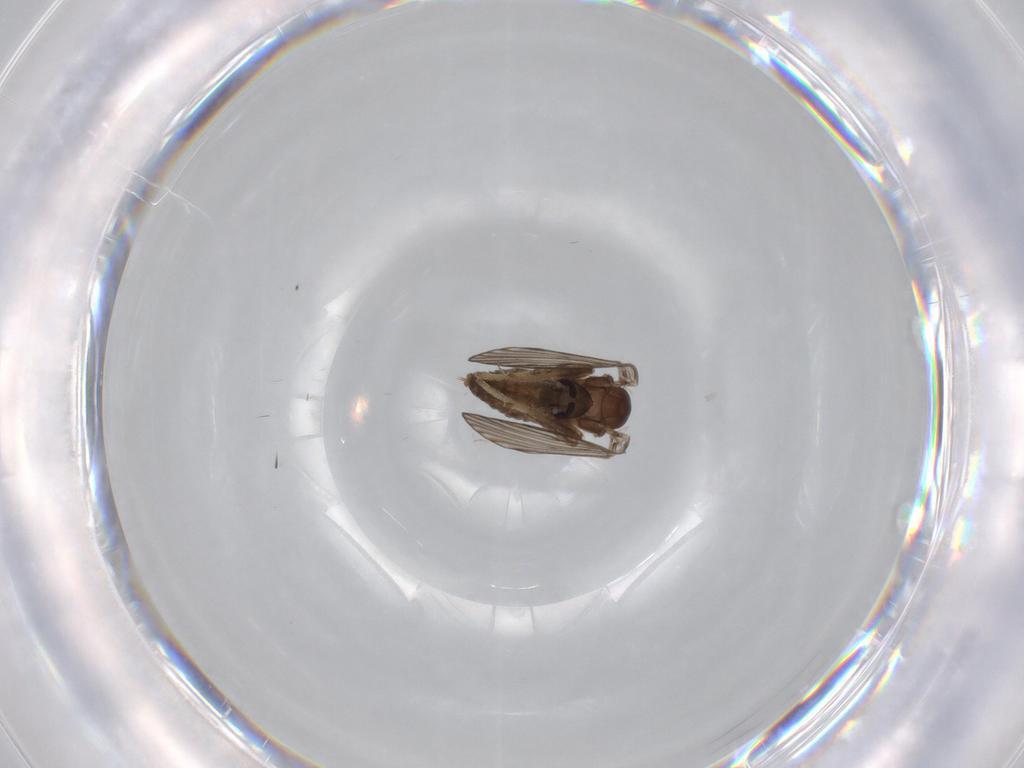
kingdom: Animalia
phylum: Arthropoda
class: Insecta
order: Diptera
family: Psychodidae
